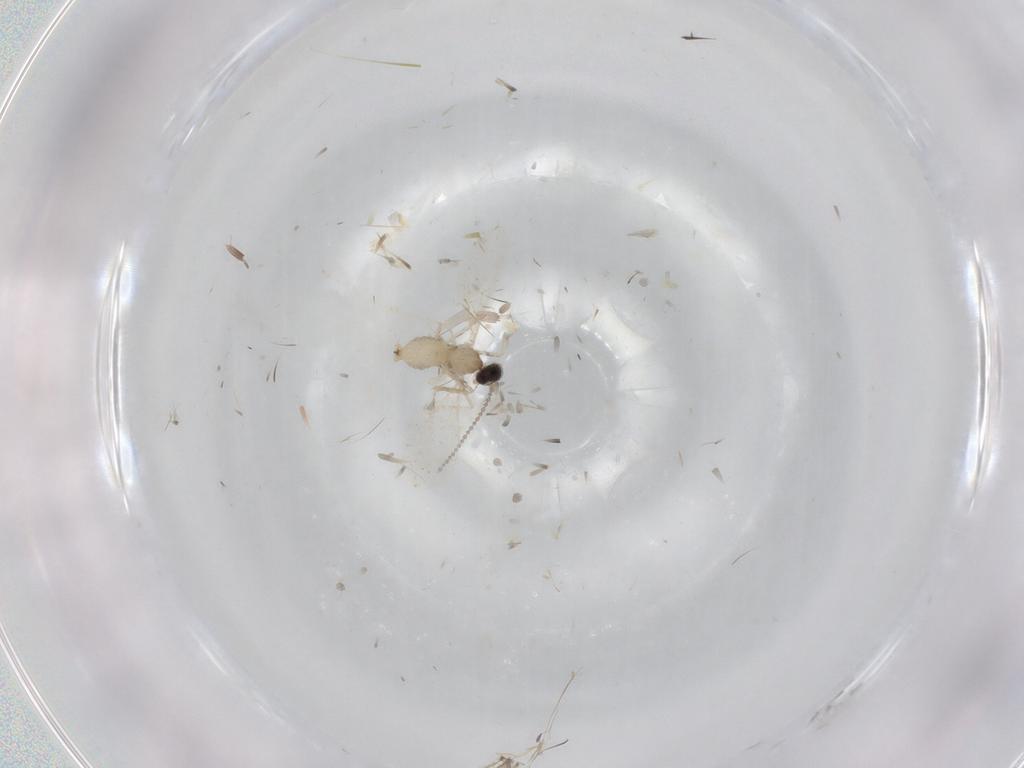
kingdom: Animalia
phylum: Arthropoda
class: Insecta
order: Diptera
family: Cecidomyiidae
